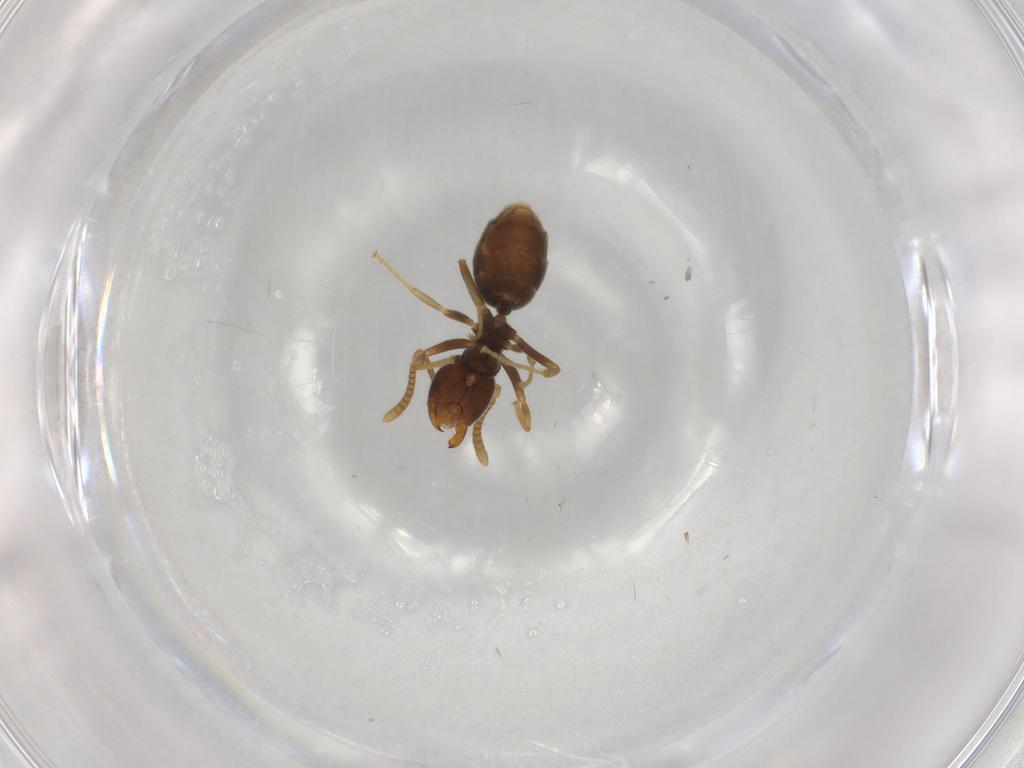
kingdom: Animalia
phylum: Arthropoda
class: Insecta
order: Hymenoptera
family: Formicidae
